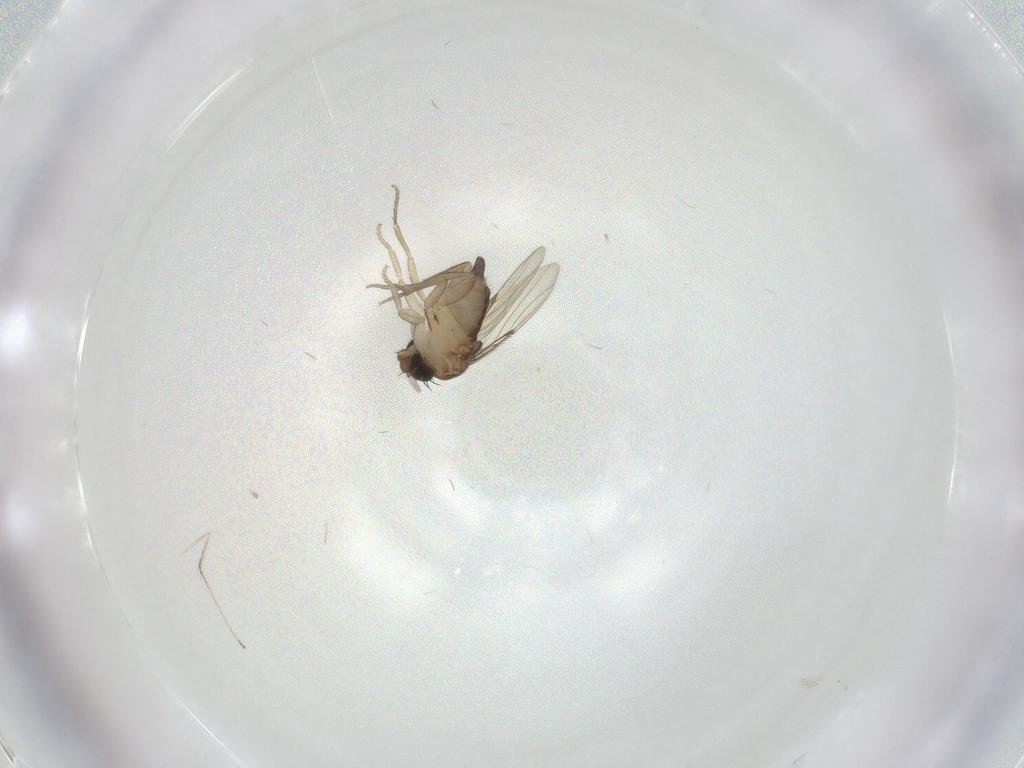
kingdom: Animalia
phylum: Arthropoda
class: Insecta
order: Diptera
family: Cecidomyiidae
